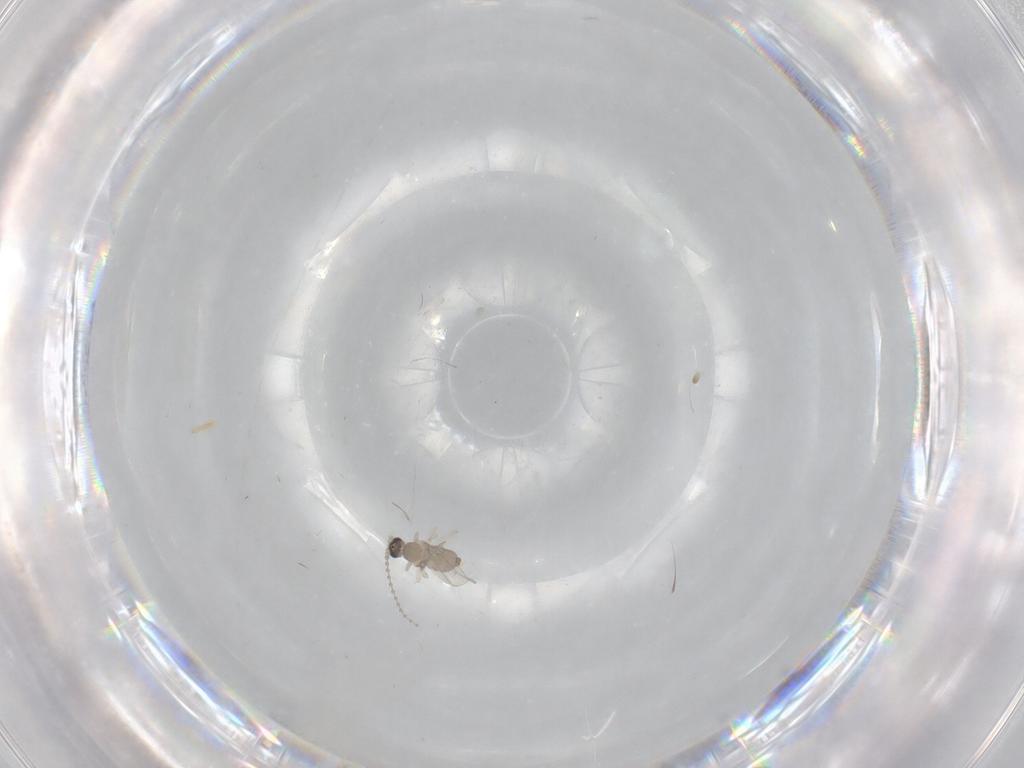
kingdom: Animalia
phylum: Arthropoda
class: Insecta
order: Diptera
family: Cecidomyiidae
